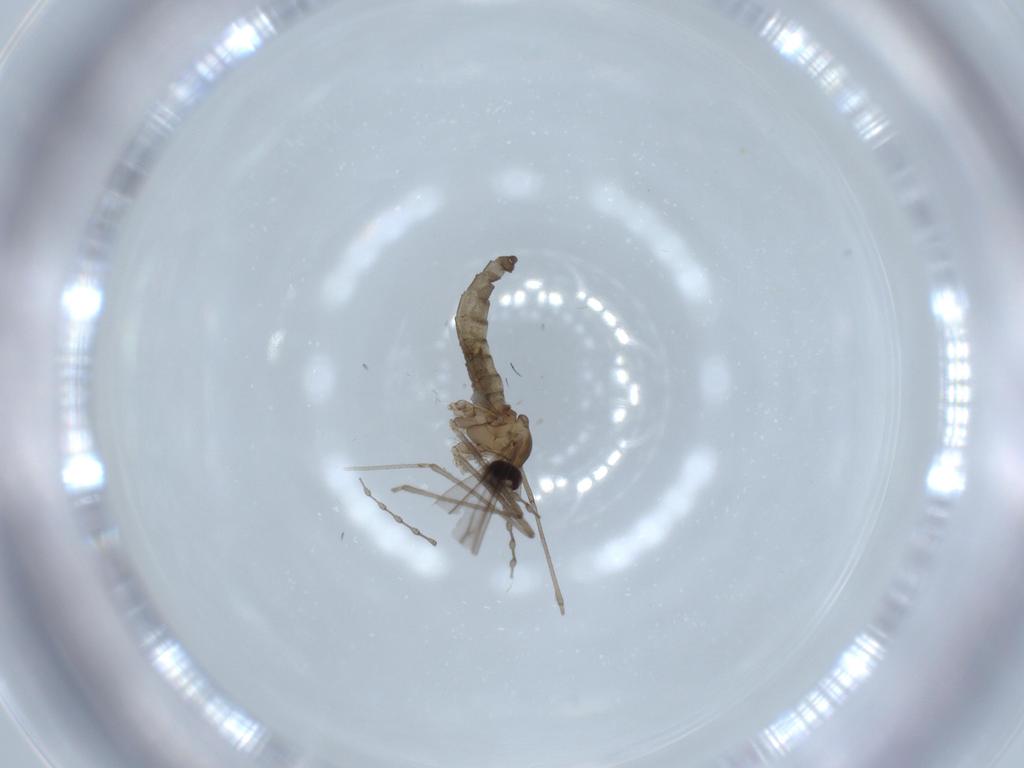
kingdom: Animalia
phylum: Arthropoda
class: Insecta
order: Diptera
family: Cecidomyiidae
